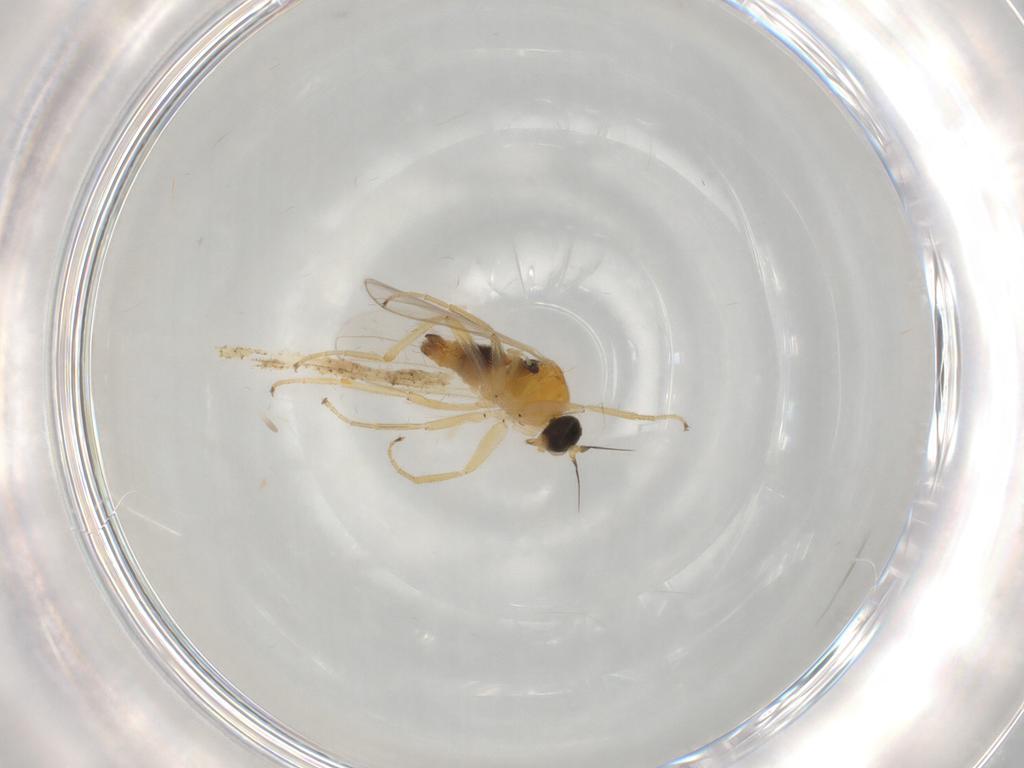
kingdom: Animalia
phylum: Arthropoda
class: Insecta
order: Diptera
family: Hybotidae
